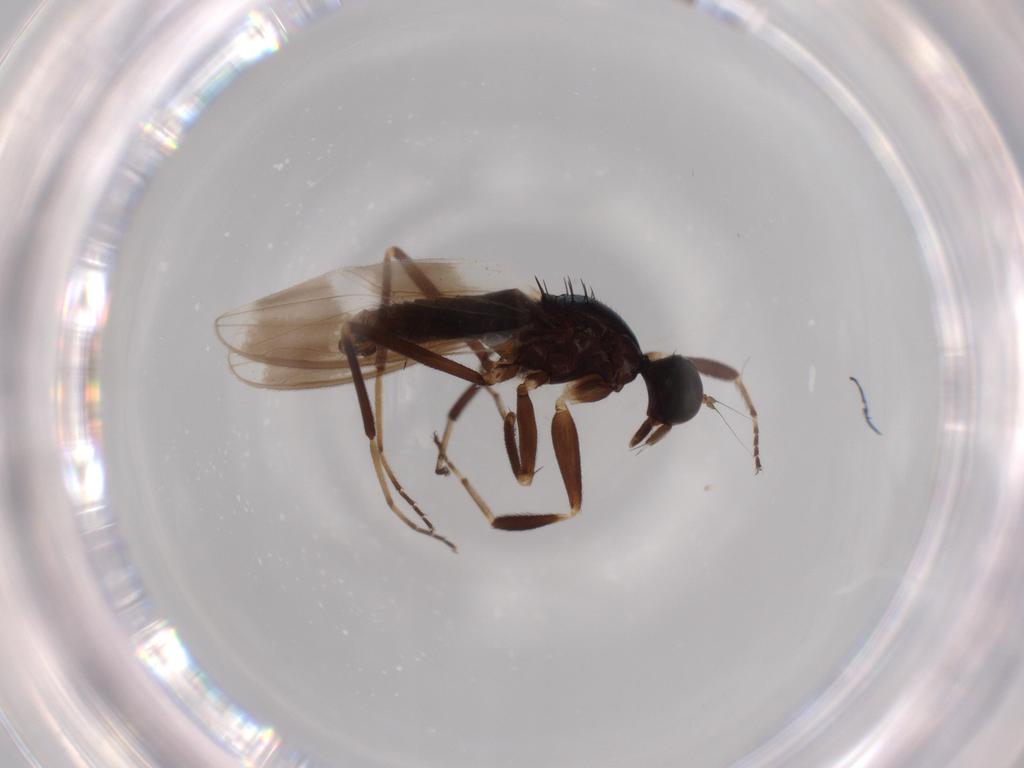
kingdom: Animalia
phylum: Arthropoda
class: Insecta
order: Diptera
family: Hybotidae
